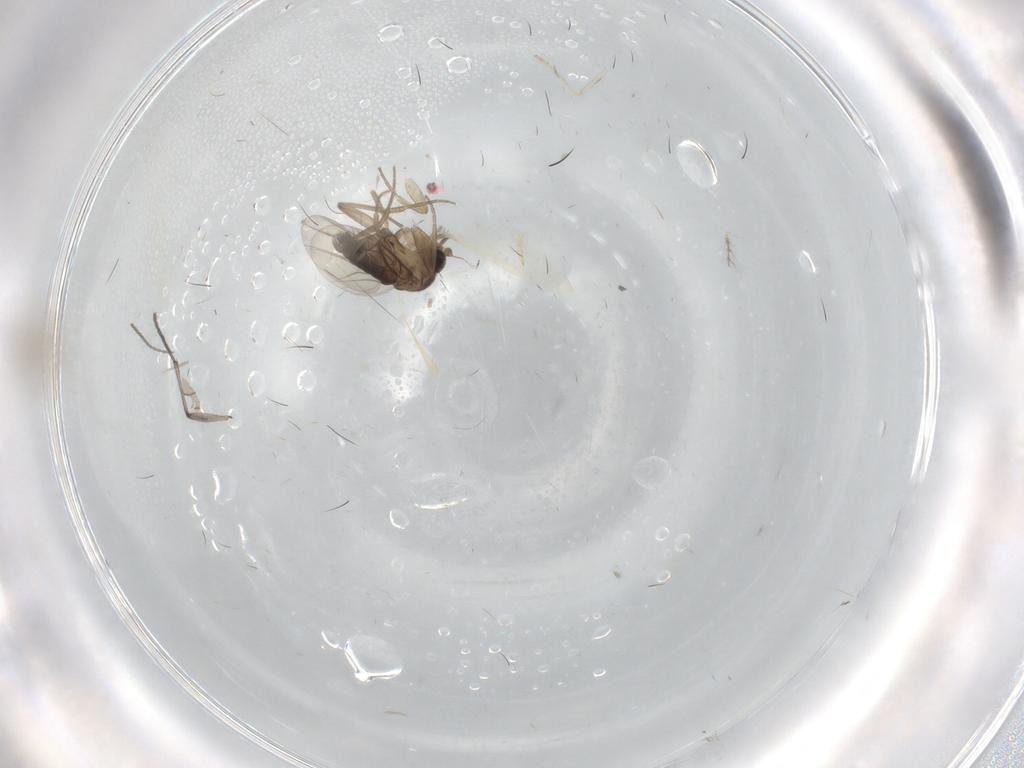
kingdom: Animalia
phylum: Arthropoda
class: Insecta
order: Diptera
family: Cecidomyiidae
